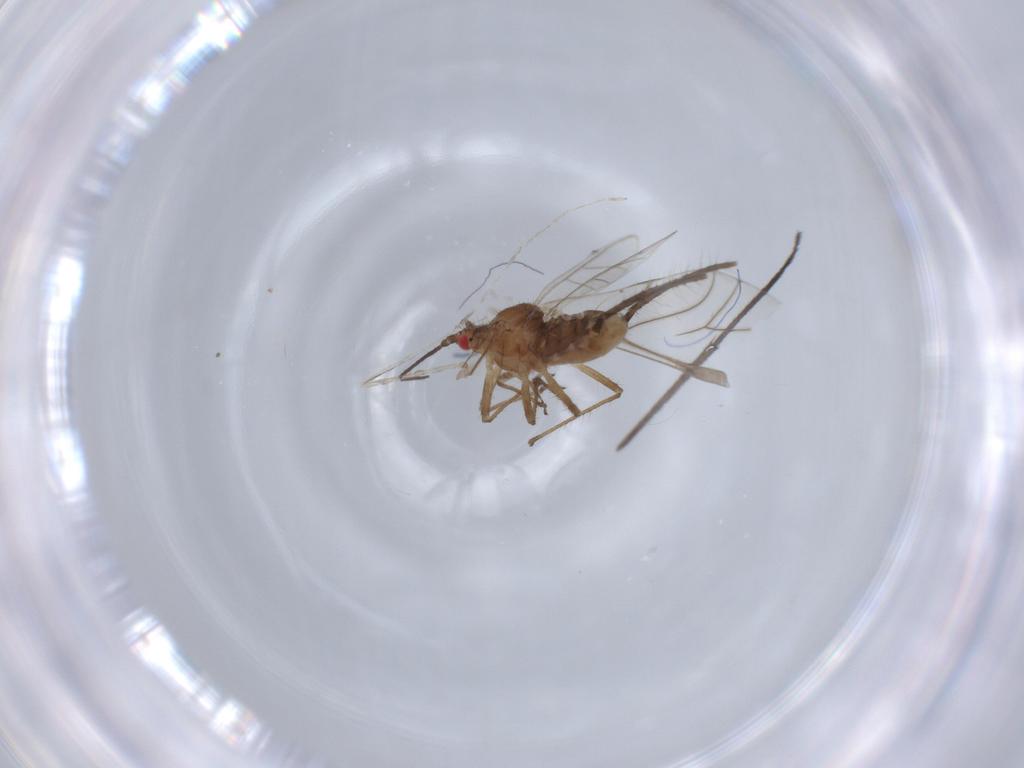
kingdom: Animalia
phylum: Arthropoda
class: Insecta
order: Hemiptera
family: Aphididae
